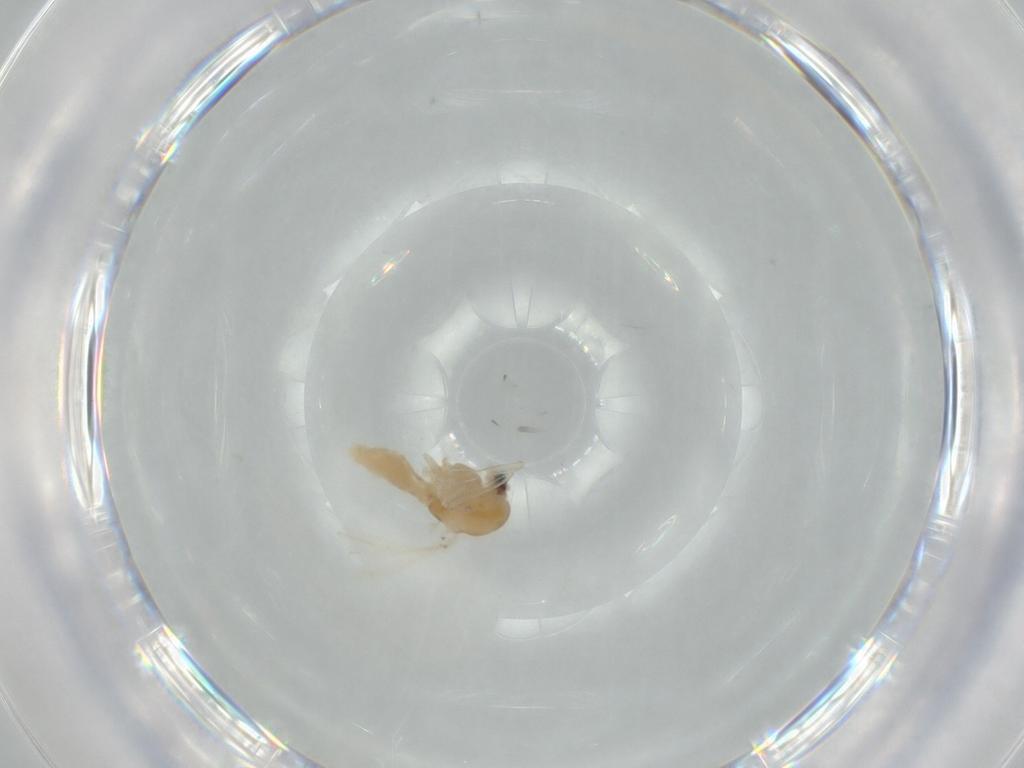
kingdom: Animalia
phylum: Arthropoda
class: Insecta
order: Diptera
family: Chironomidae
